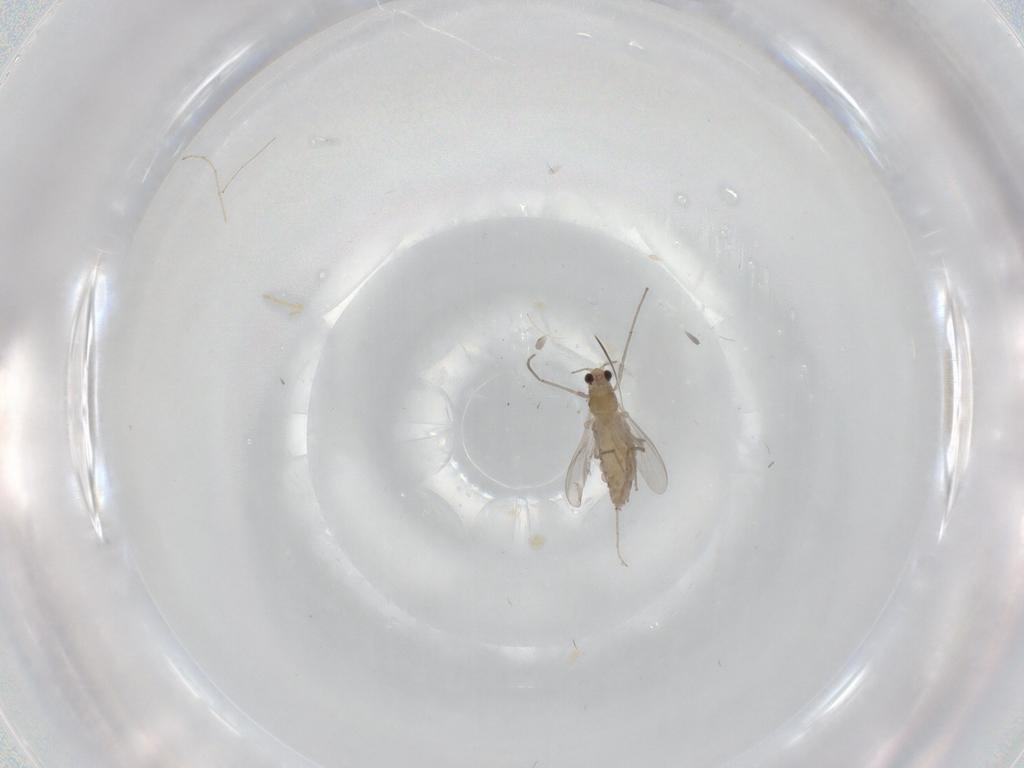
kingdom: Animalia
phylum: Arthropoda
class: Insecta
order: Diptera
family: Chironomidae
